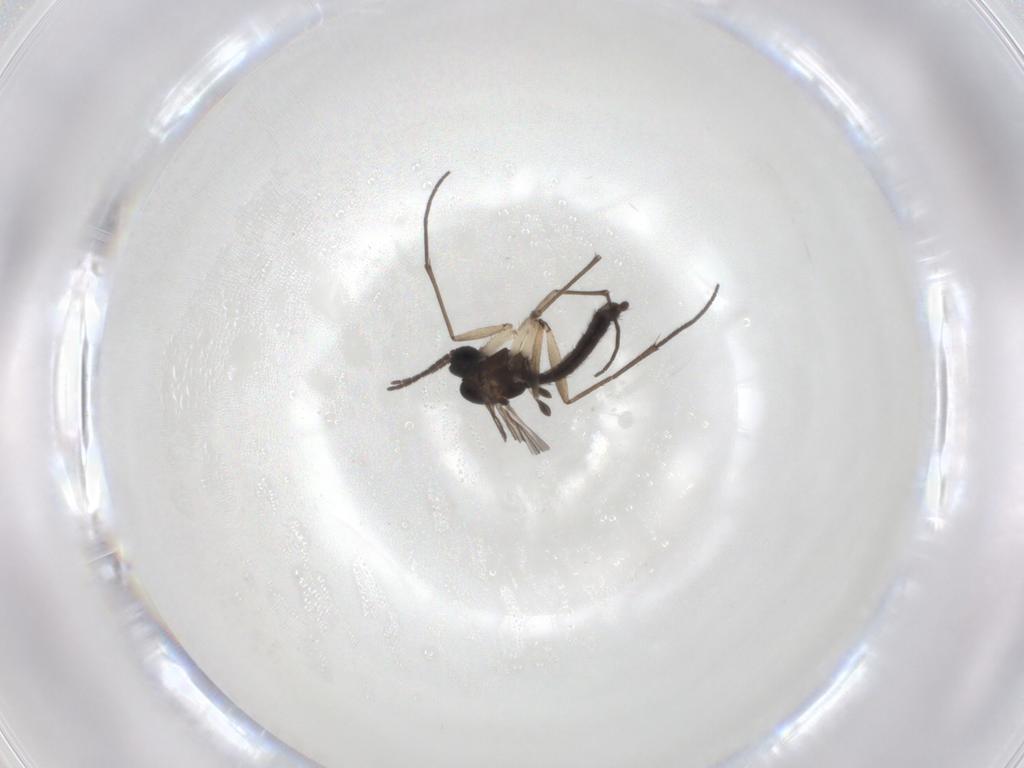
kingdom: Animalia
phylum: Arthropoda
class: Insecta
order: Diptera
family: Sciaridae
